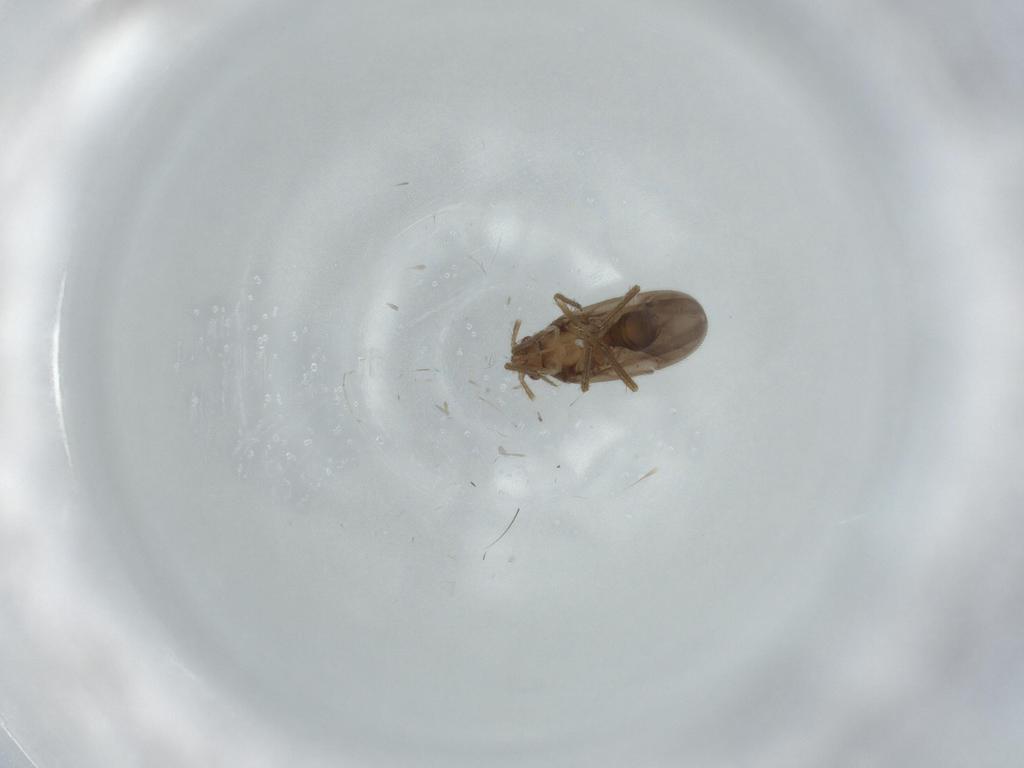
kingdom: Animalia
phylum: Arthropoda
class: Insecta
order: Hemiptera
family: Ceratocombidae
